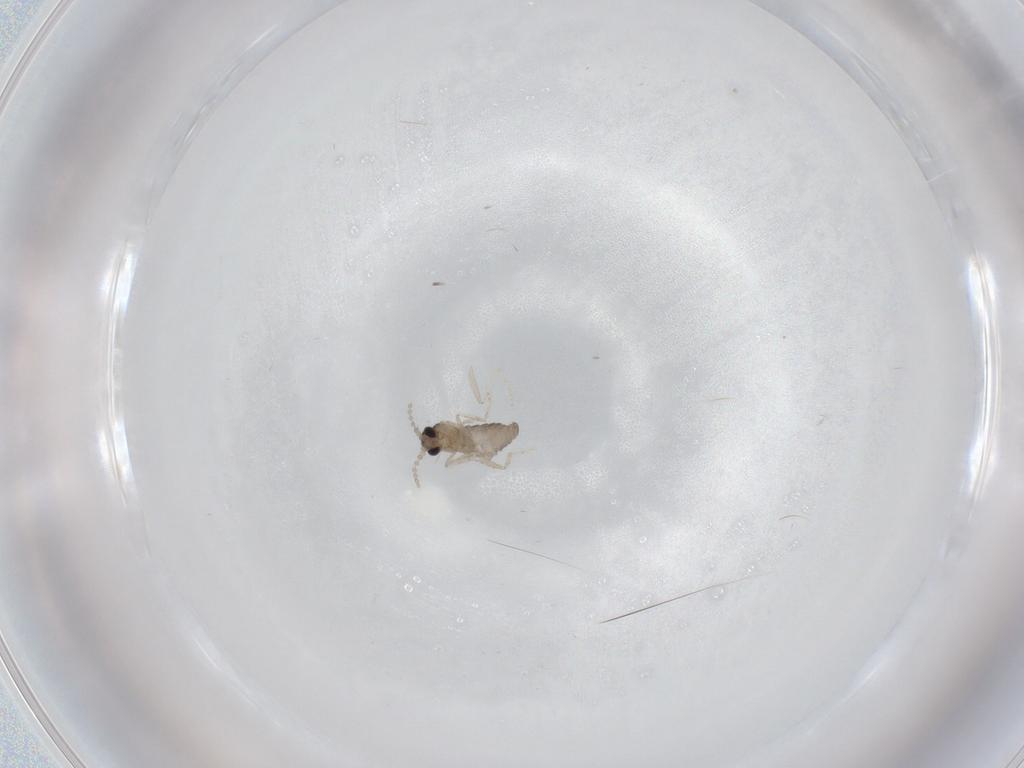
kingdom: Animalia
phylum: Arthropoda
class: Insecta
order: Diptera
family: Cecidomyiidae
